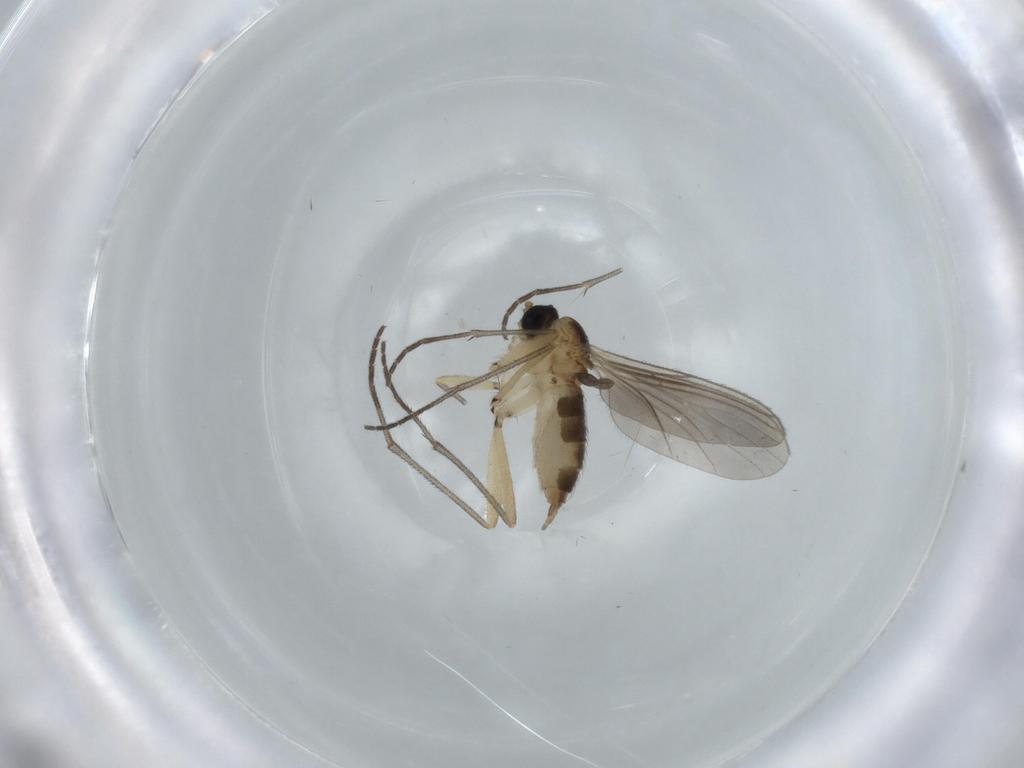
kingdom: Animalia
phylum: Arthropoda
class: Insecta
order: Diptera
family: Sciaridae
